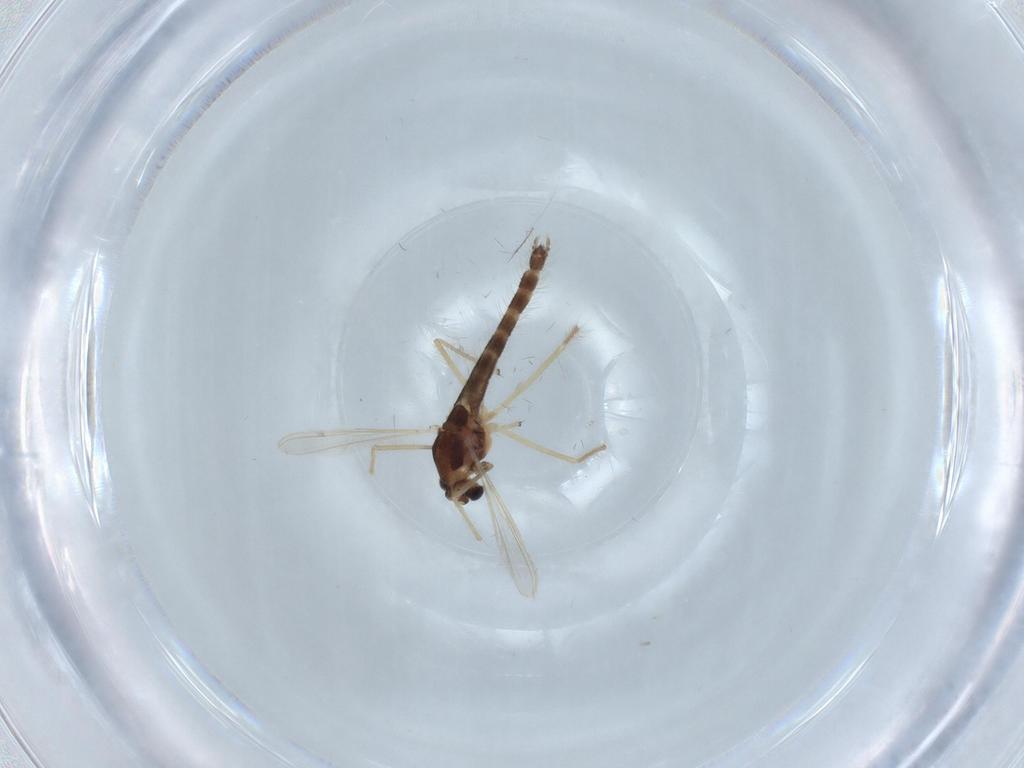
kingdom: Animalia
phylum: Arthropoda
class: Insecta
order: Diptera
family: Chironomidae
